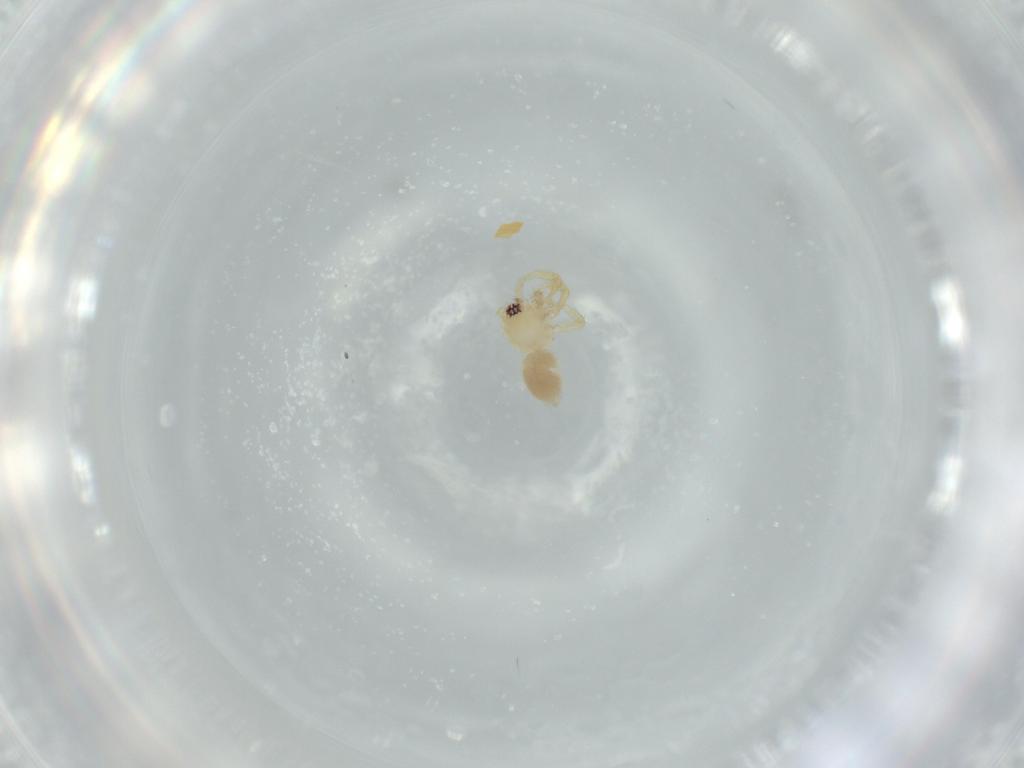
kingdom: Animalia
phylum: Arthropoda
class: Arachnida
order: Araneae
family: Oonopidae
